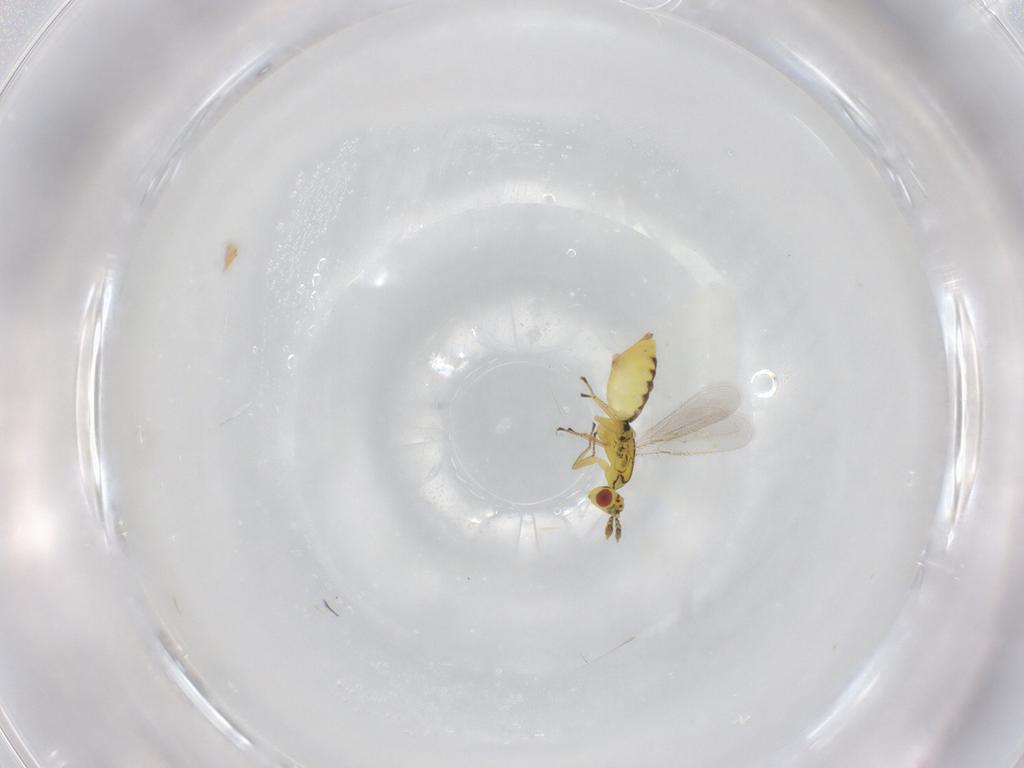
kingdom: Animalia
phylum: Arthropoda
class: Insecta
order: Hymenoptera
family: Eulophidae
